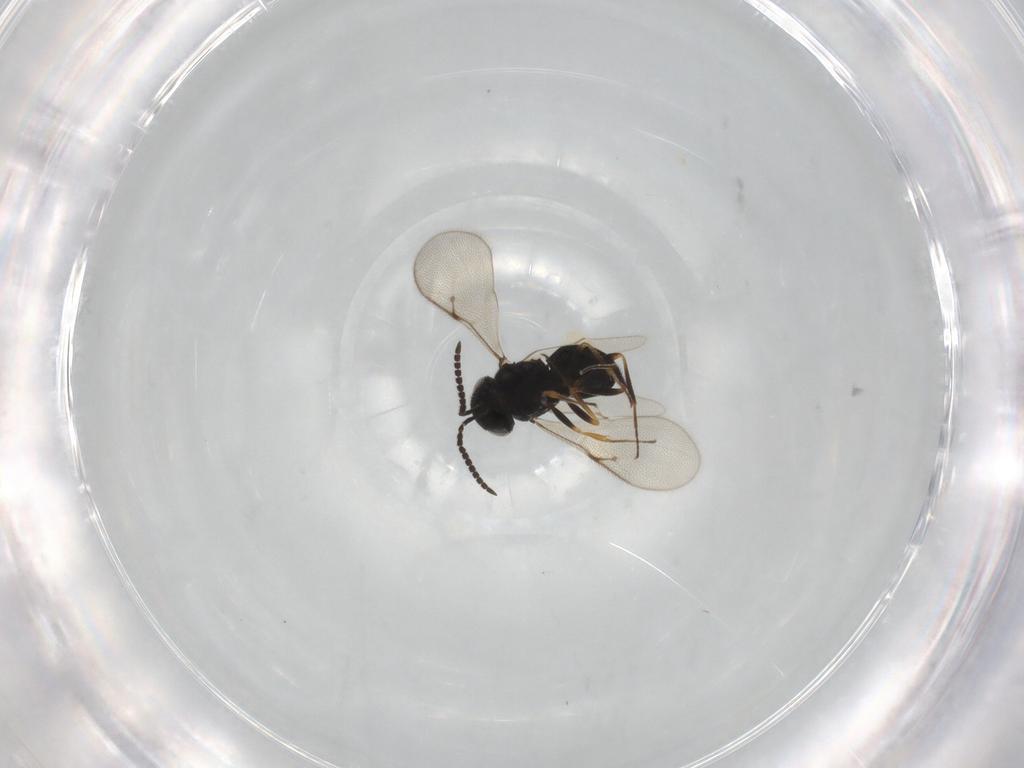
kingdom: Animalia
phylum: Arthropoda
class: Insecta
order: Hymenoptera
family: Scelionidae
